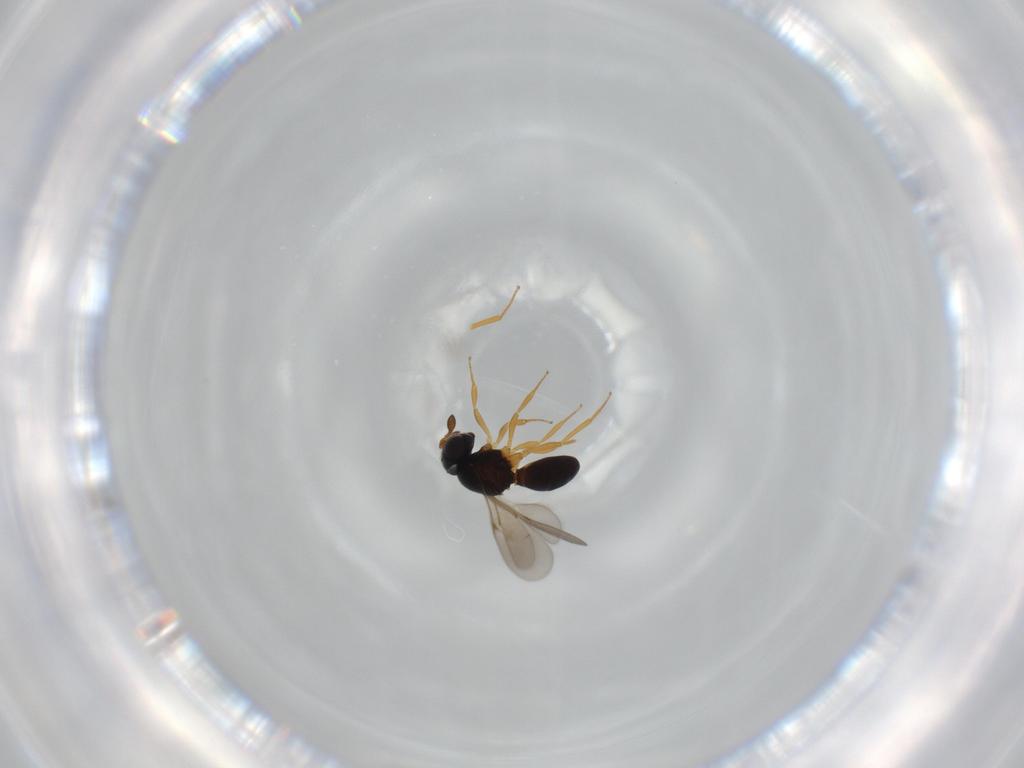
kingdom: Animalia
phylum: Arthropoda
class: Insecta
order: Hymenoptera
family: Scelionidae
